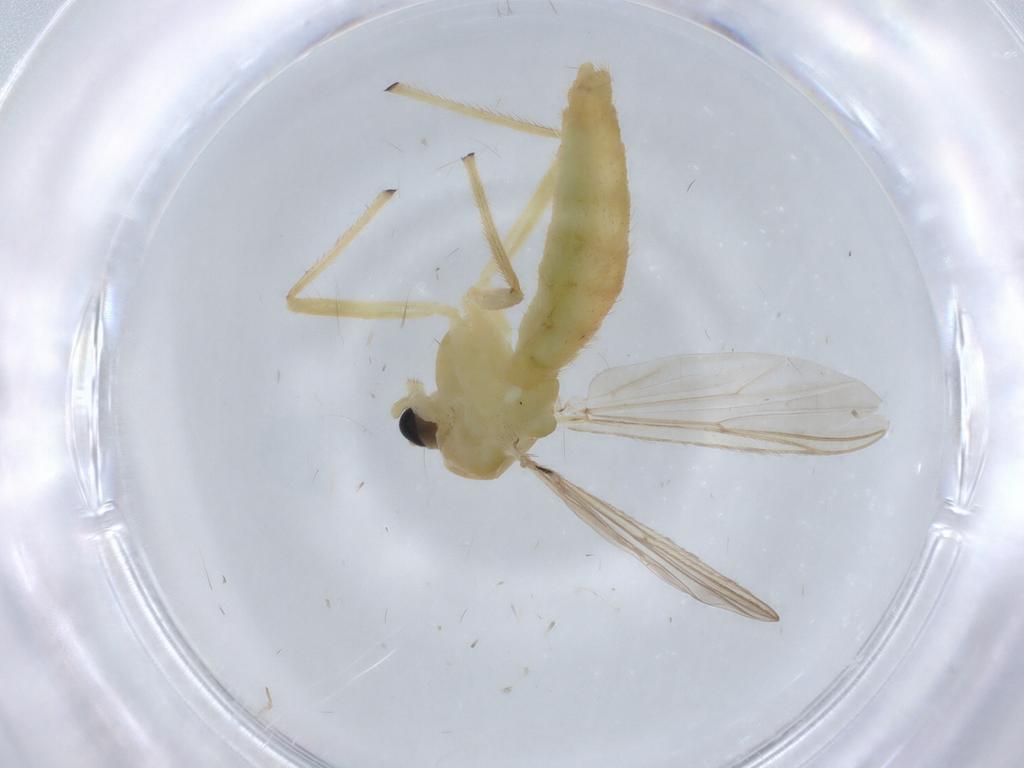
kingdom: Animalia
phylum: Arthropoda
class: Insecta
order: Diptera
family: Chironomidae
